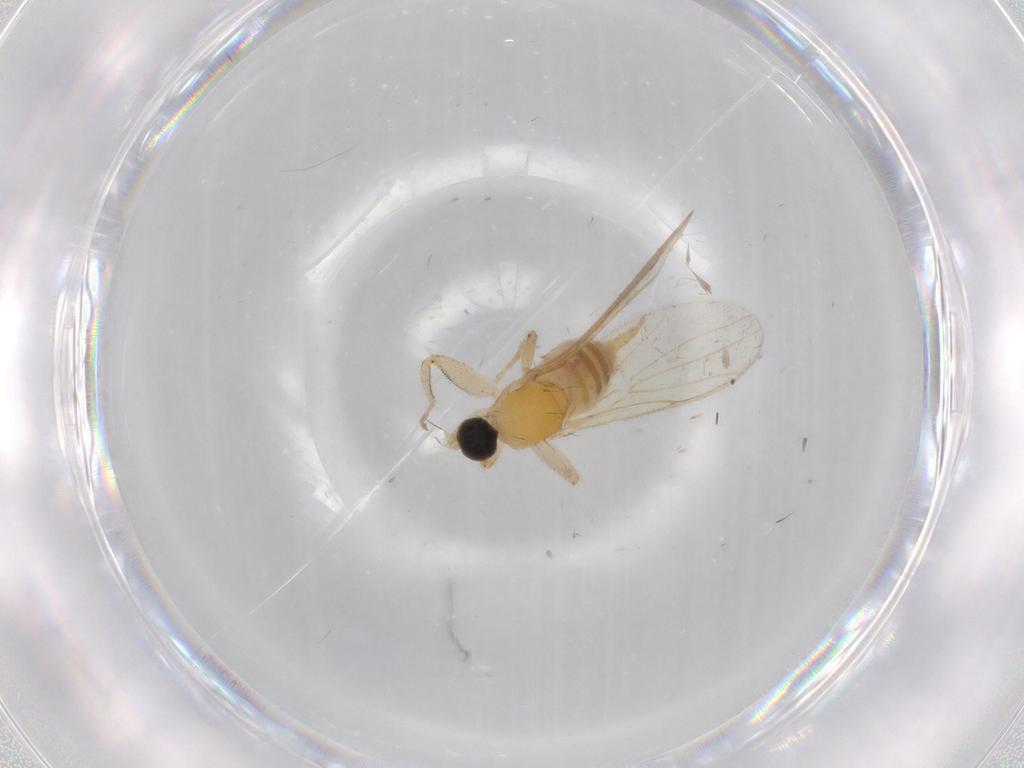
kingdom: Animalia
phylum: Arthropoda
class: Insecta
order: Diptera
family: Cecidomyiidae
